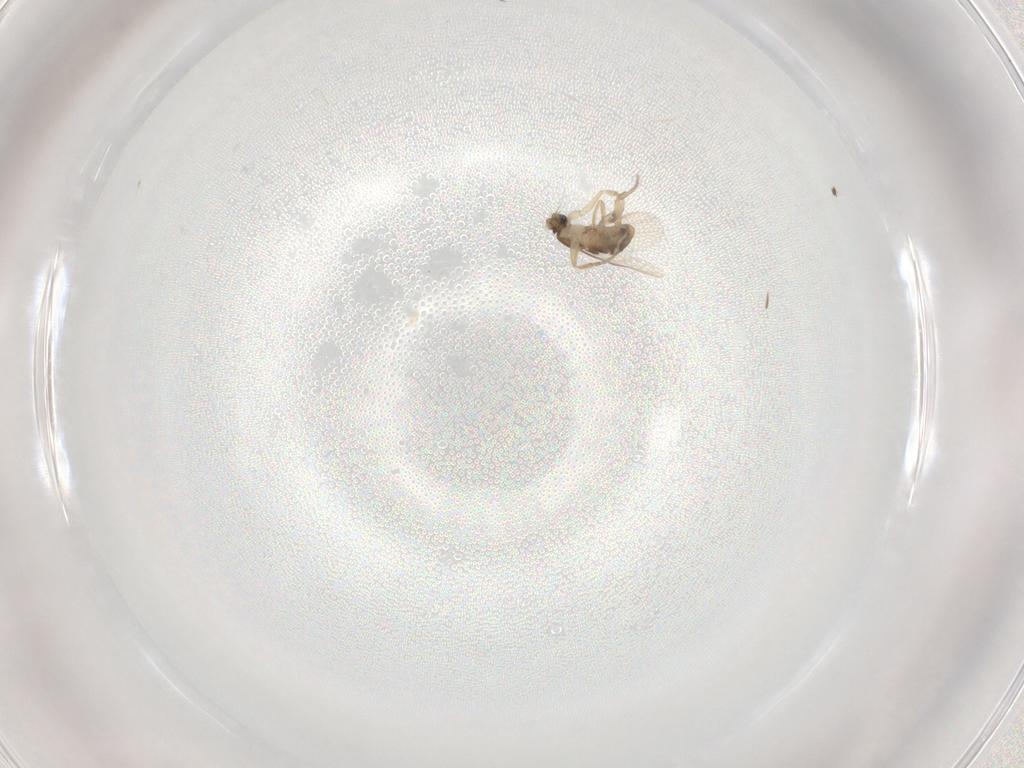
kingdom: Animalia
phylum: Arthropoda
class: Insecta
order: Diptera
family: Phoridae
